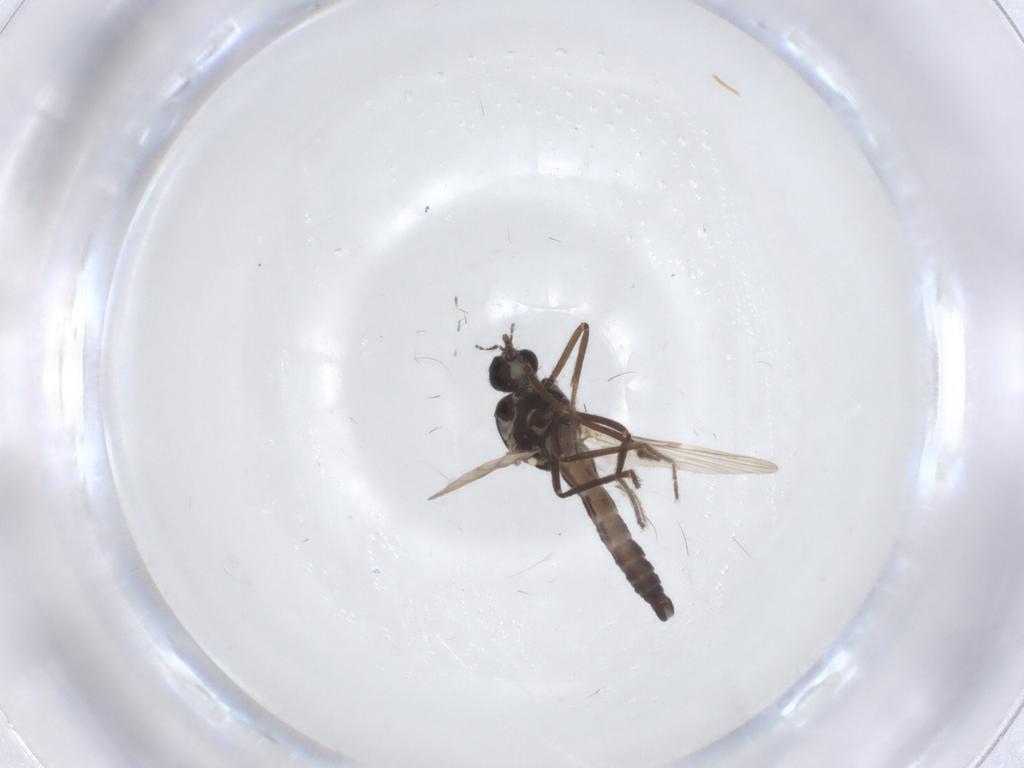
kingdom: Animalia
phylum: Arthropoda
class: Insecta
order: Diptera
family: Ceratopogonidae
